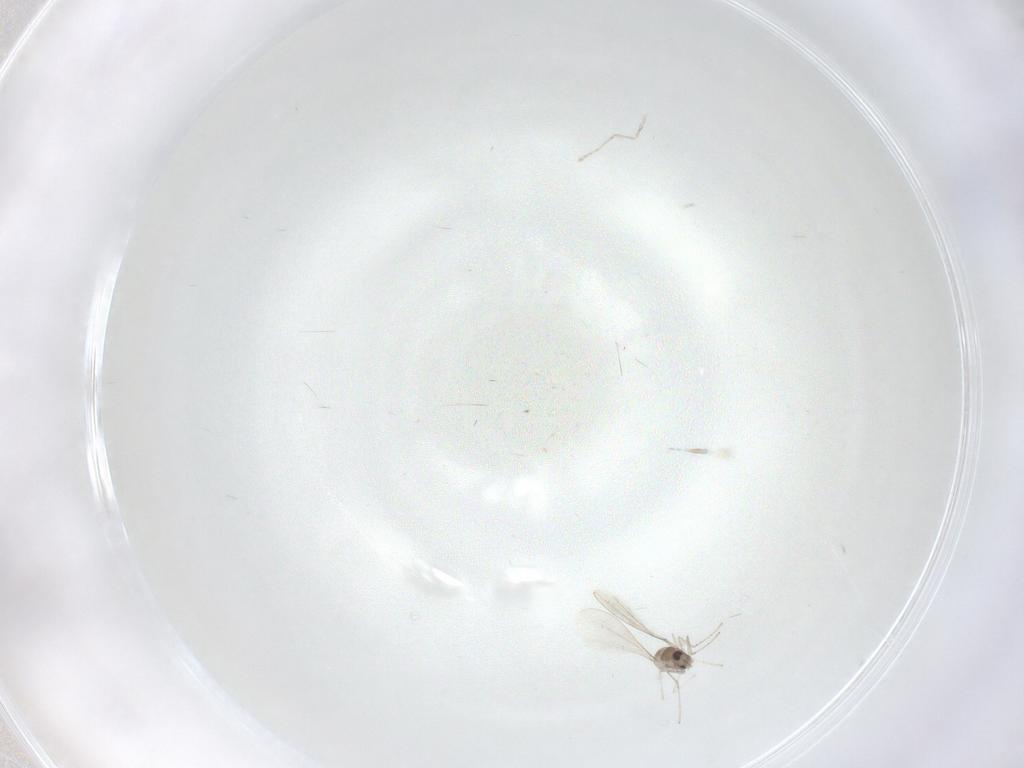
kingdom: Animalia
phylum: Arthropoda
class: Insecta
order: Diptera
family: Cecidomyiidae
